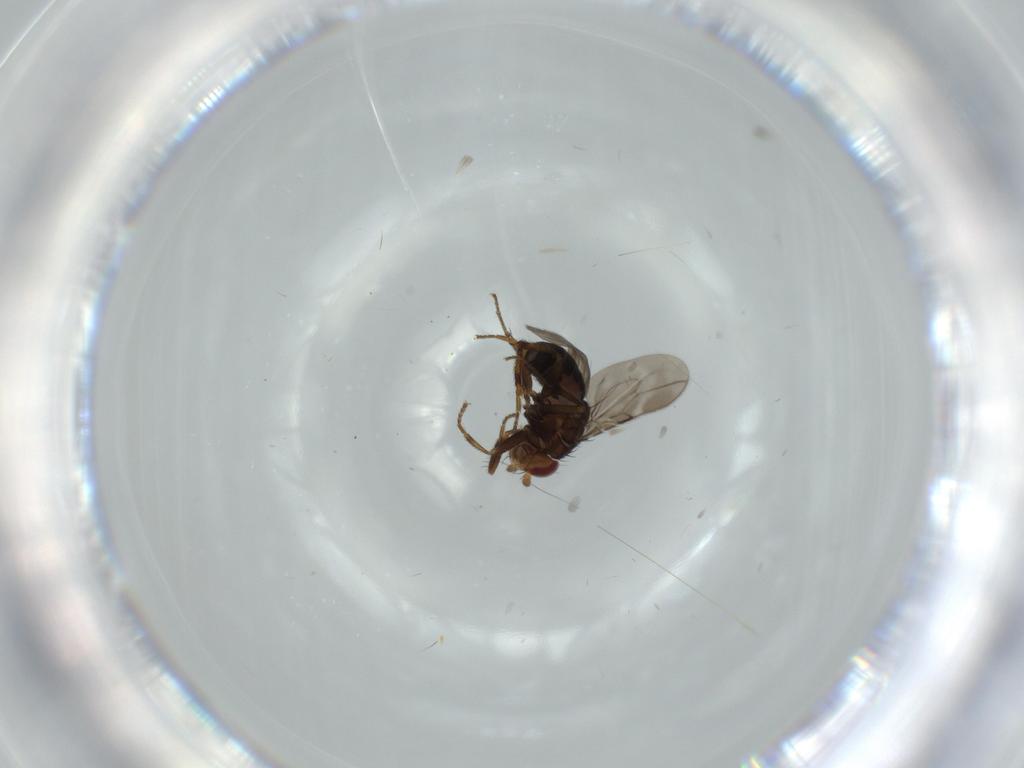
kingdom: Animalia
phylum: Arthropoda
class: Insecta
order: Diptera
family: Sphaeroceridae
